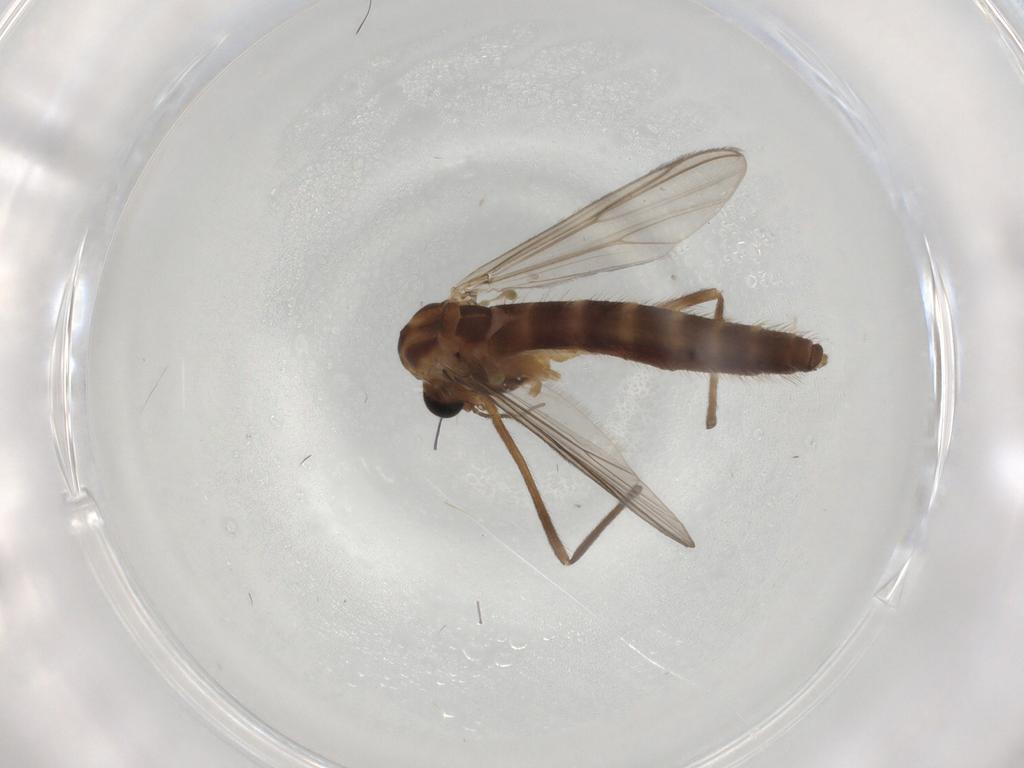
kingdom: Animalia
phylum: Arthropoda
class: Insecta
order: Diptera
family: Chironomidae
